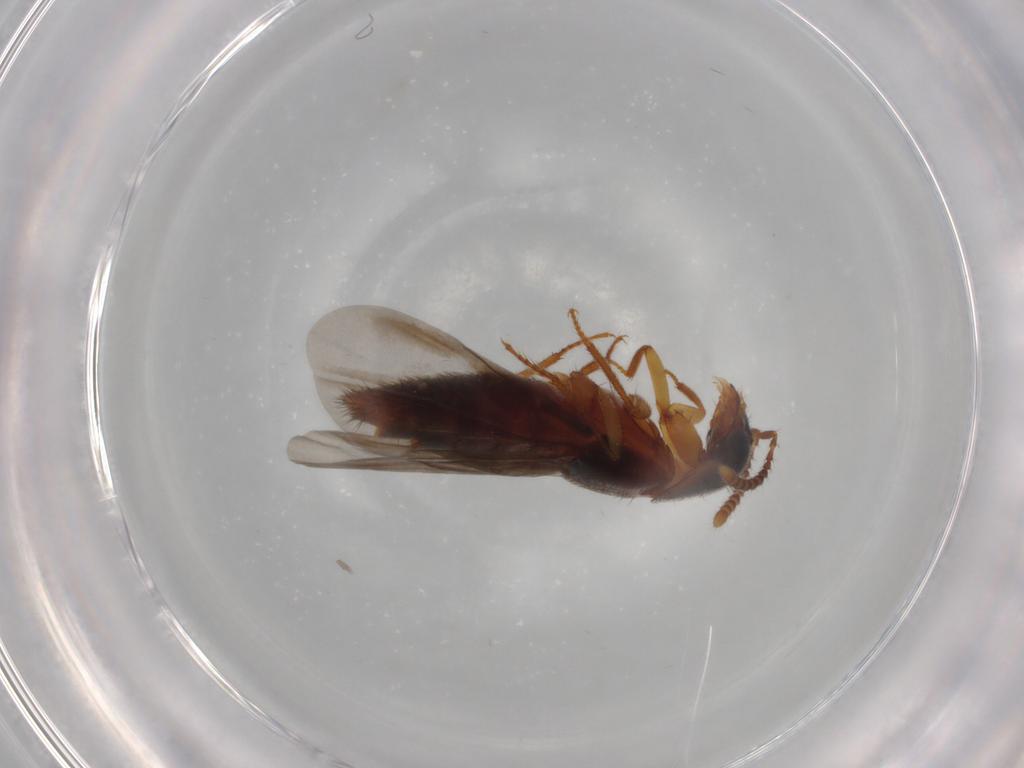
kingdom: Animalia
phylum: Arthropoda
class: Insecta
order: Coleoptera
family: Staphylinidae
